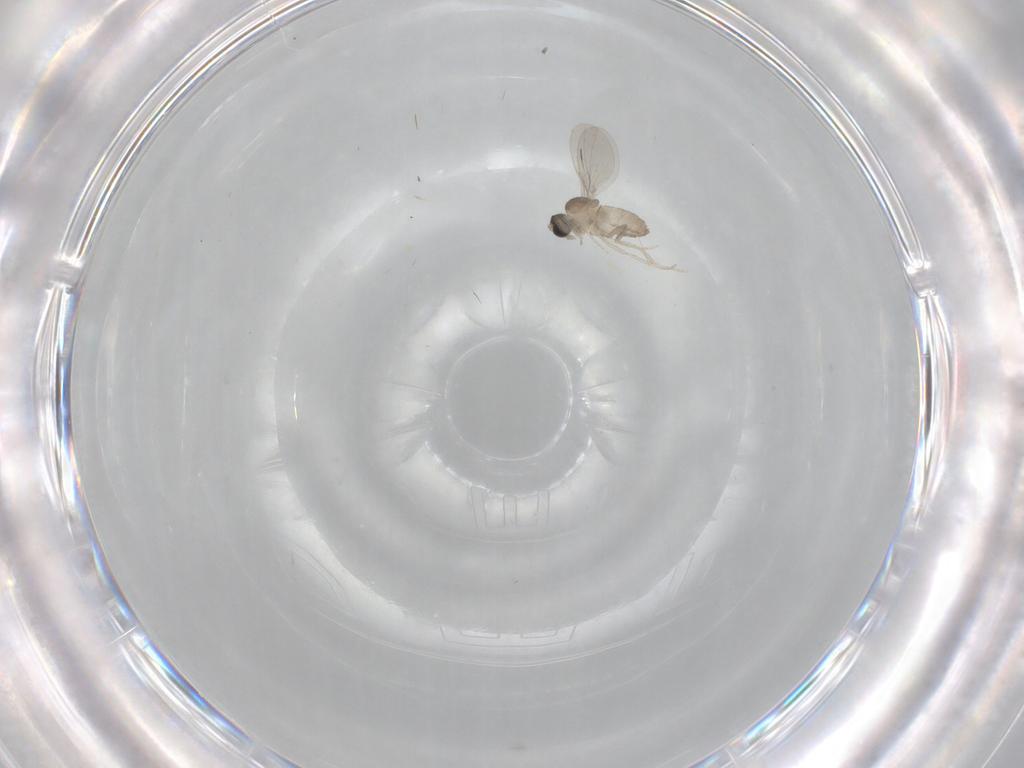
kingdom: Animalia
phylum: Arthropoda
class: Insecta
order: Diptera
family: Cecidomyiidae
